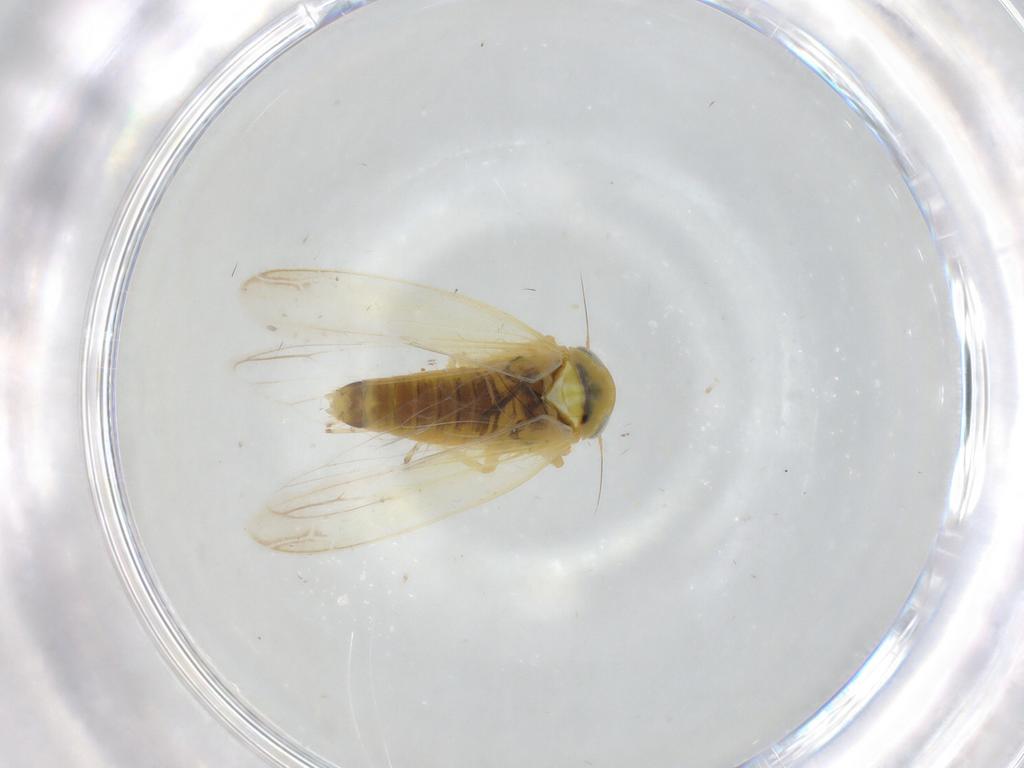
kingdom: Animalia
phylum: Arthropoda
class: Insecta
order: Hemiptera
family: Cicadellidae
